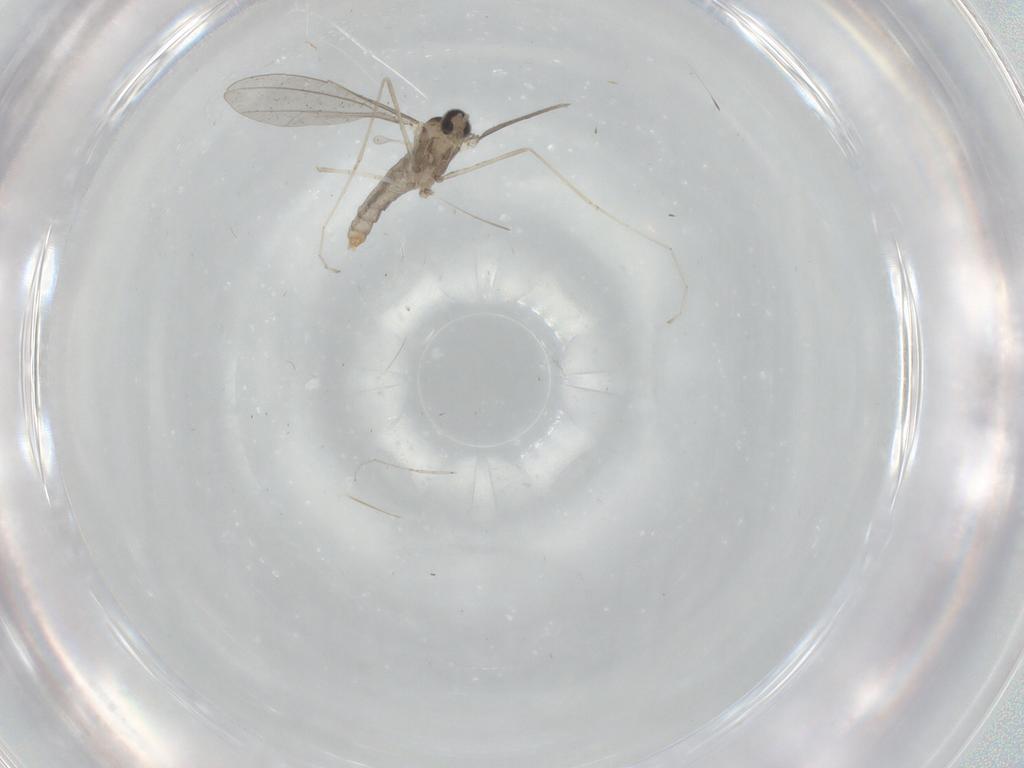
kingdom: Animalia
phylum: Arthropoda
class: Insecta
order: Diptera
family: Cecidomyiidae
